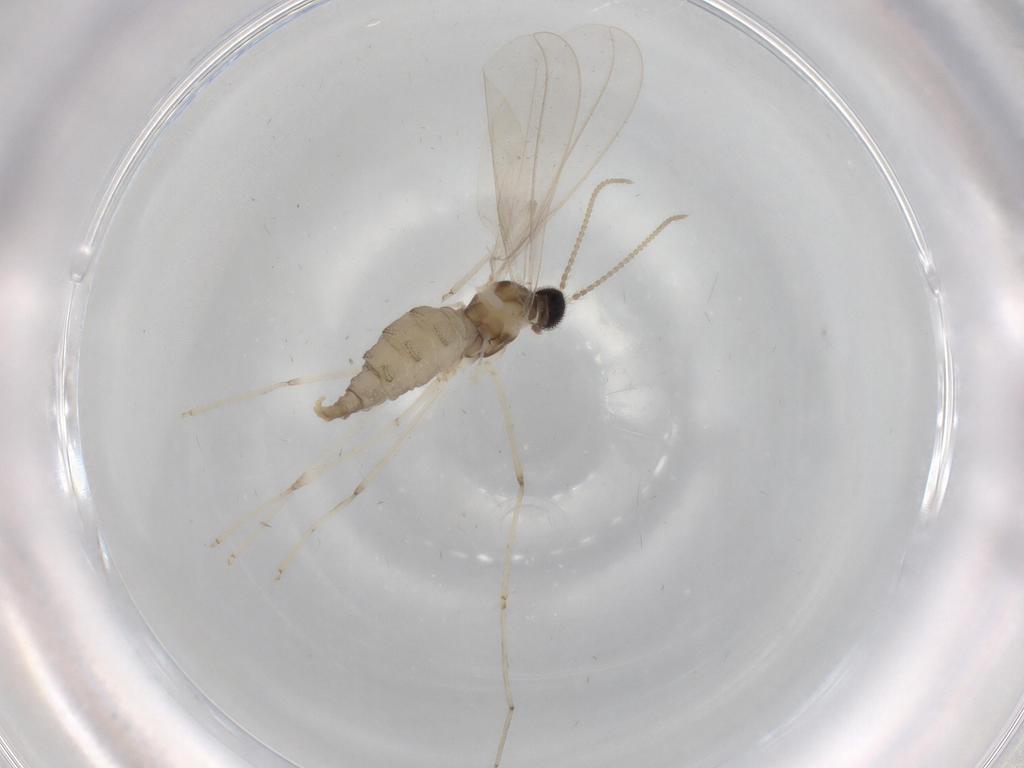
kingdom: Animalia
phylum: Arthropoda
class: Insecta
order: Diptera
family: Cecidomyiidae
